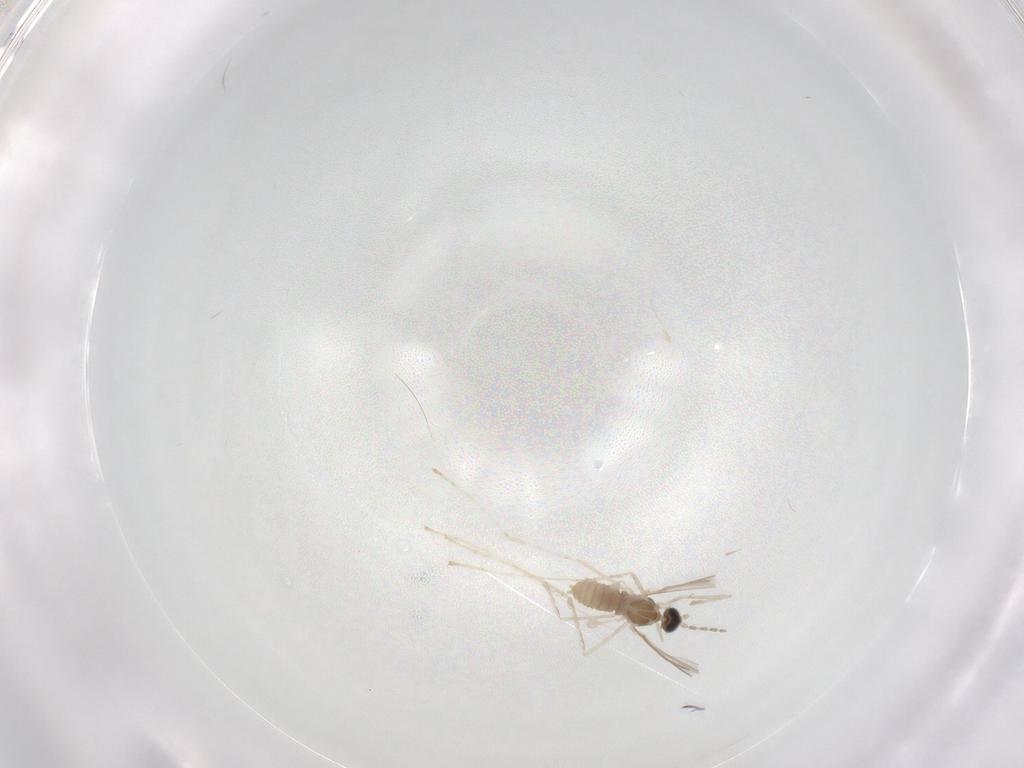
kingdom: Animalia
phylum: Arthropoda
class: Insecta
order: Diptera
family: Cecidomyiidae
